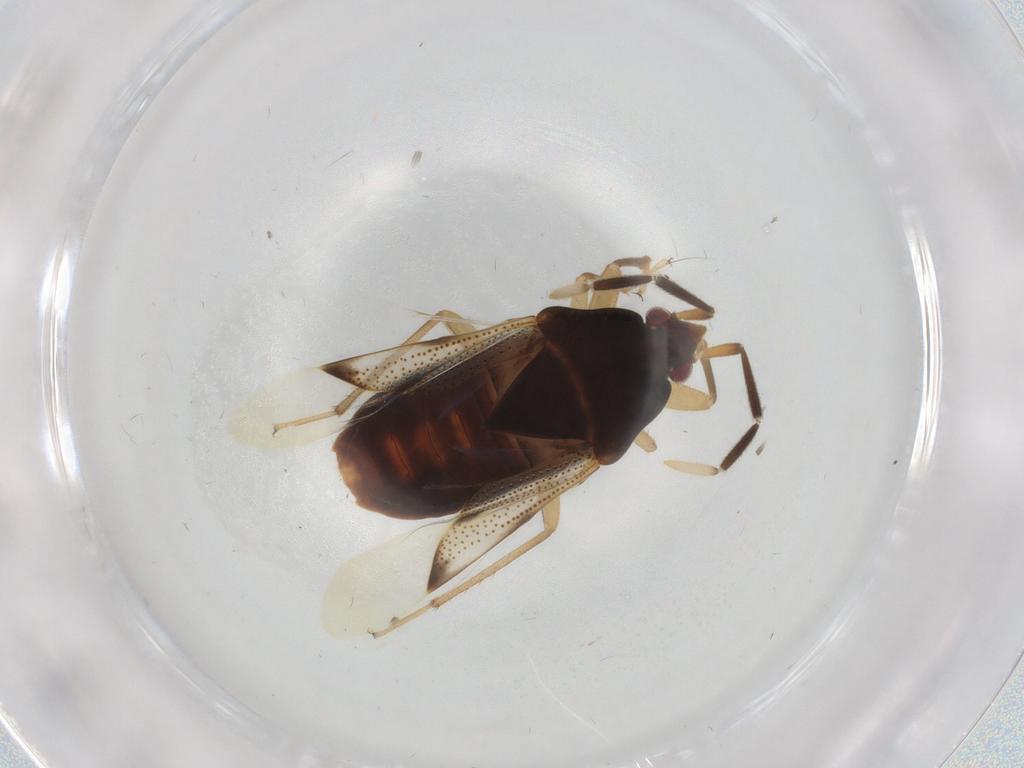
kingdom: Animalia
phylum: Arthropoda
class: Insecta
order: Hemiptera
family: Rhyparochromidae
